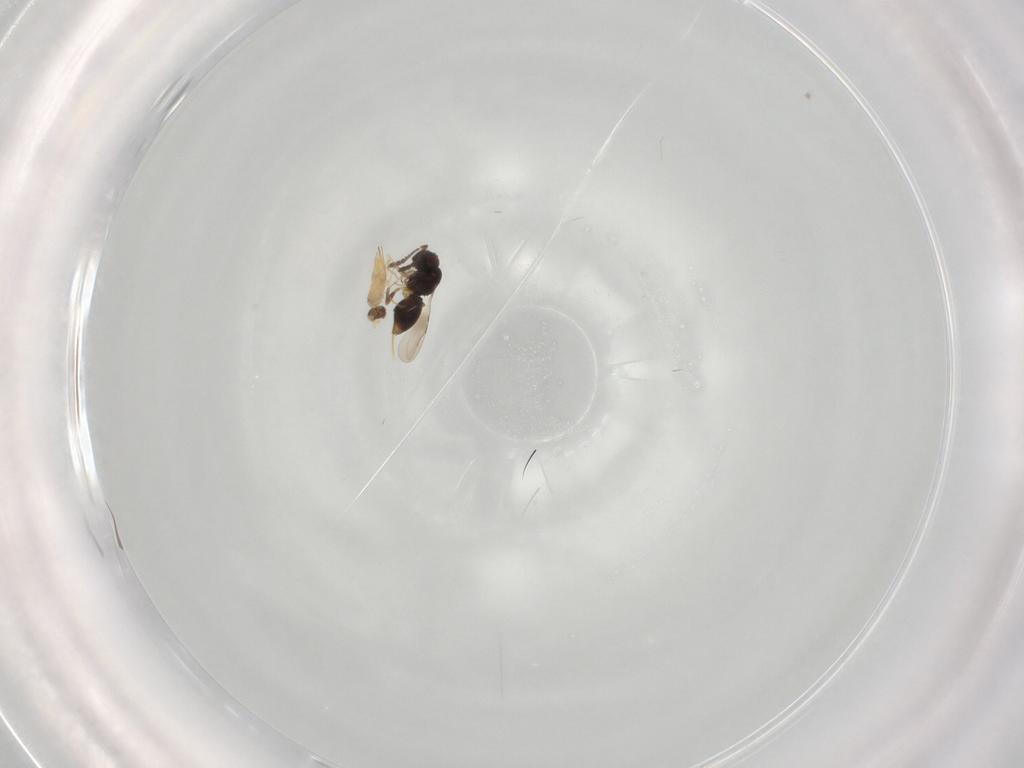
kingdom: Animalia
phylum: Arthropoda
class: Insecta
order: Hymenoptera
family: Mymaridae
